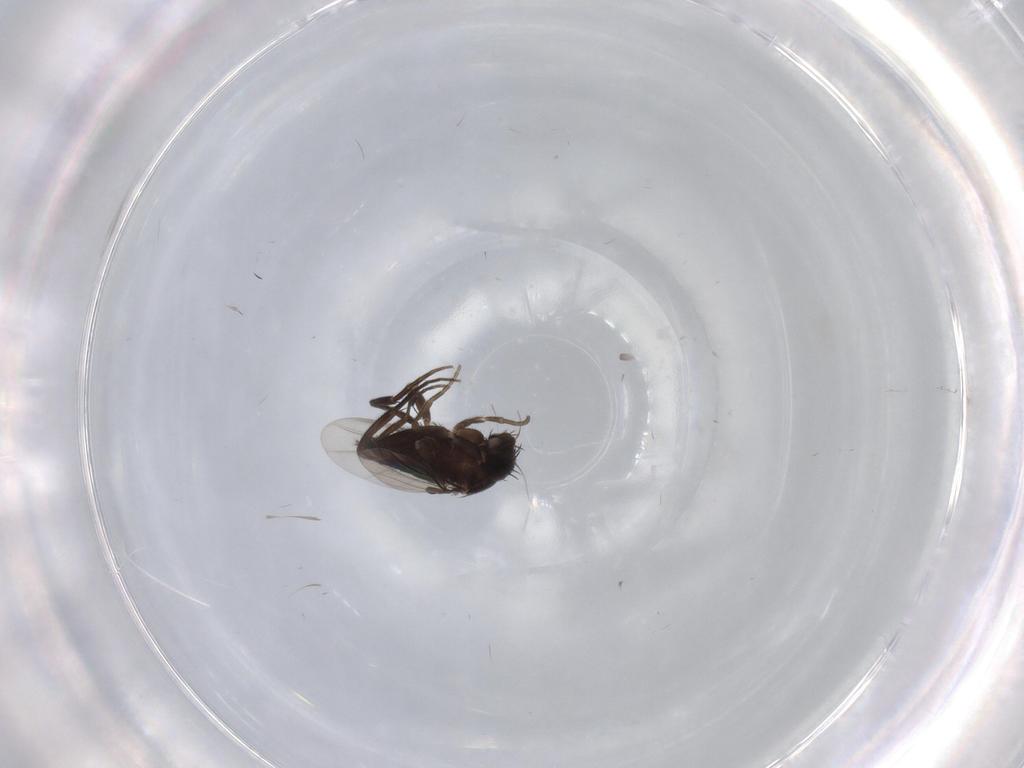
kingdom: Animalia
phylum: Arthropoda
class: Insecta
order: Diptera
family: Phoridae
